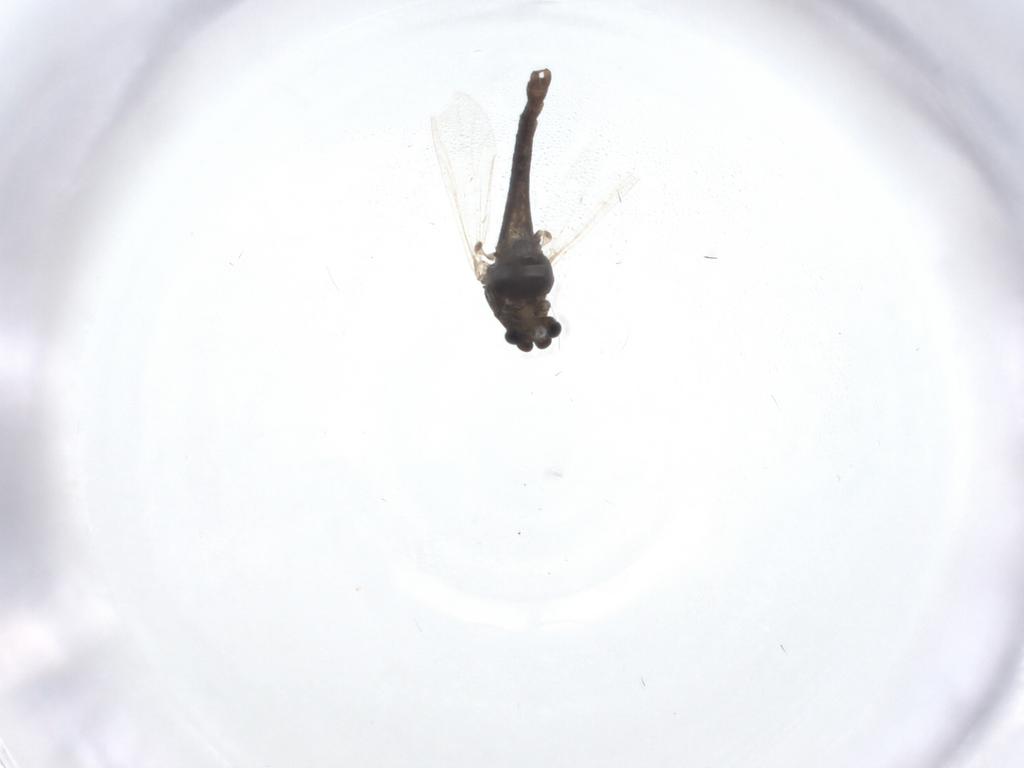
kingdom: Animalia
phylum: Arthropoda
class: Insecta
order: Diptera
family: Chironomidae
